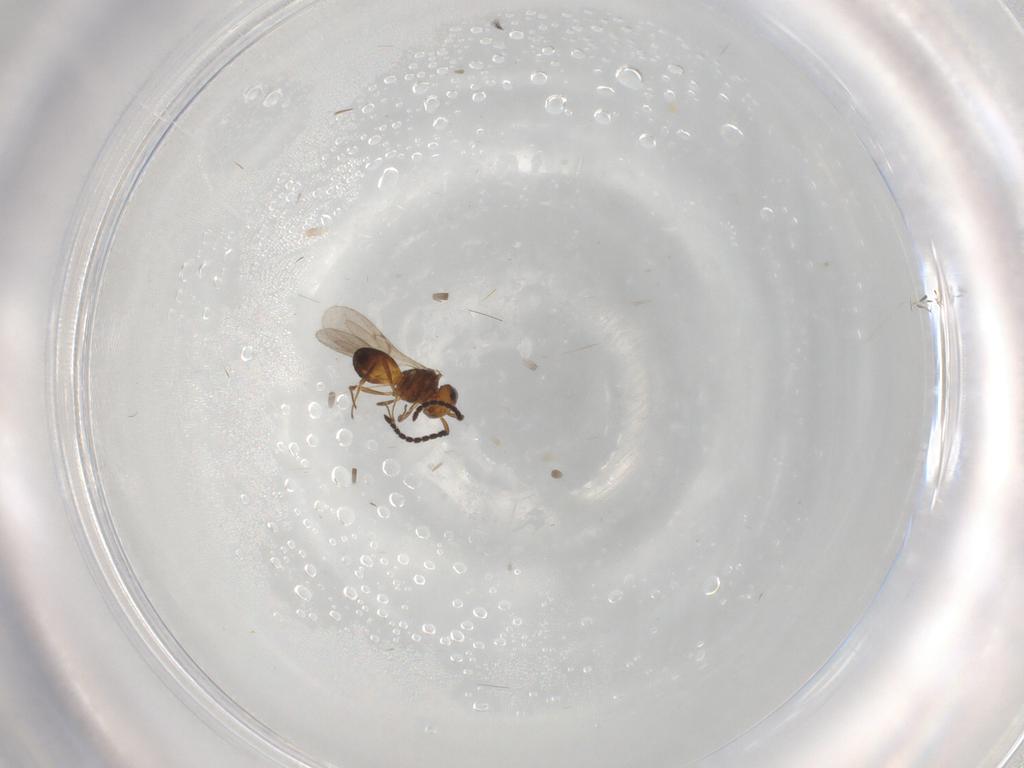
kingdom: Animalia
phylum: Arthropoda
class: Insecta
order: Hymenoptera
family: Scelionidae
